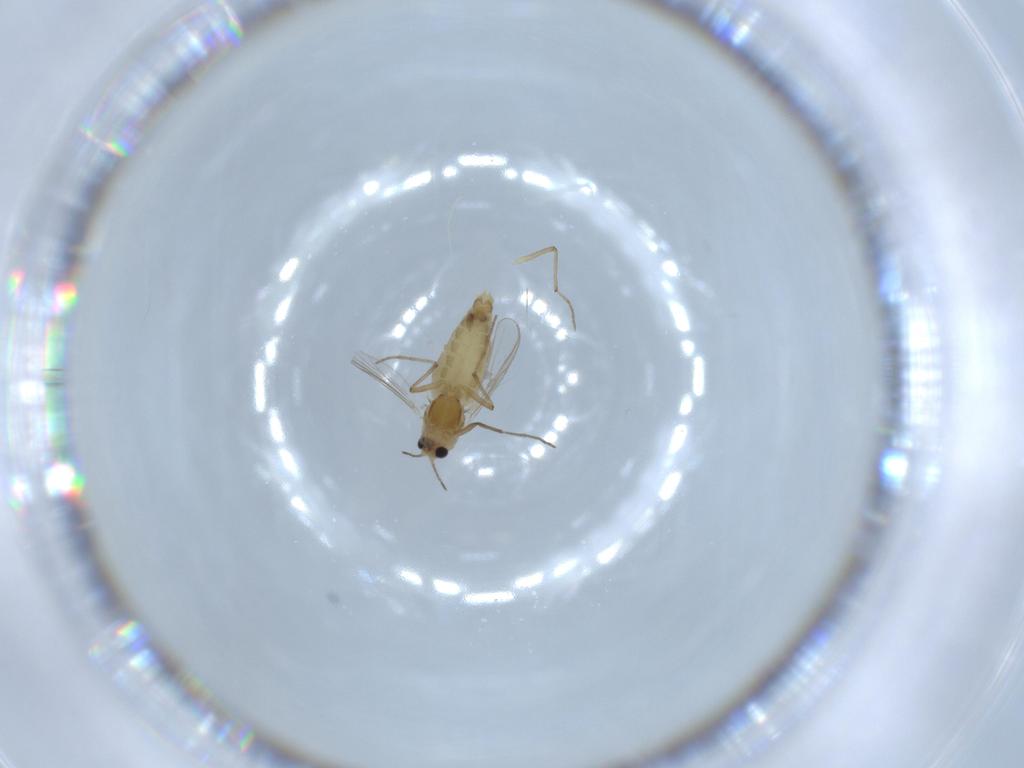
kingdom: Animalia
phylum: Arthropoda
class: Insecta
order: Diptera
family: Chironomidae
